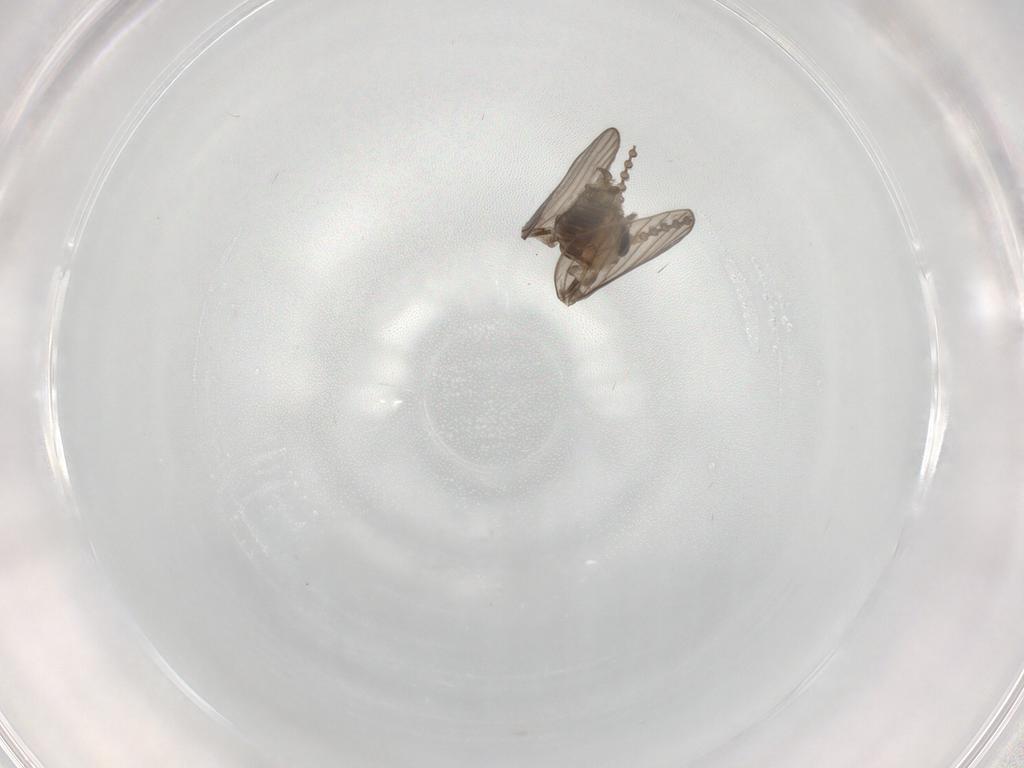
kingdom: Animalia
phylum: Arthropoda
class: Insecta
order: Diptera
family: Psychodidae
